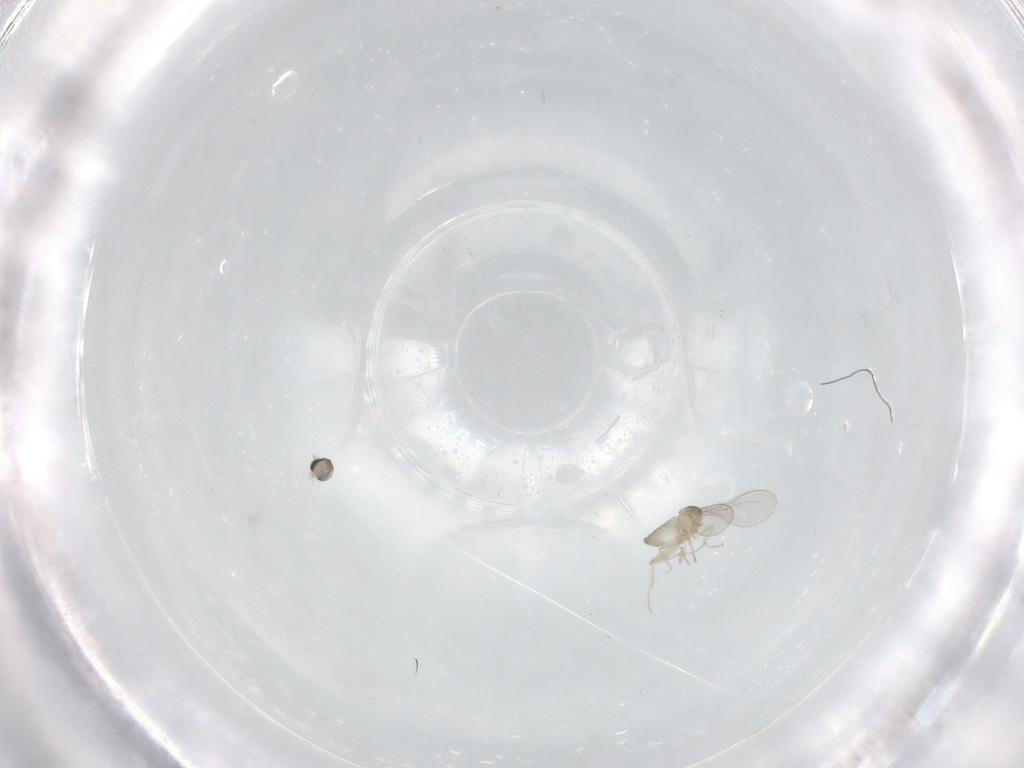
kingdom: Animalia
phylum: Arthropoda
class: Insecta
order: Diptera
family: Cecidomyiidae
